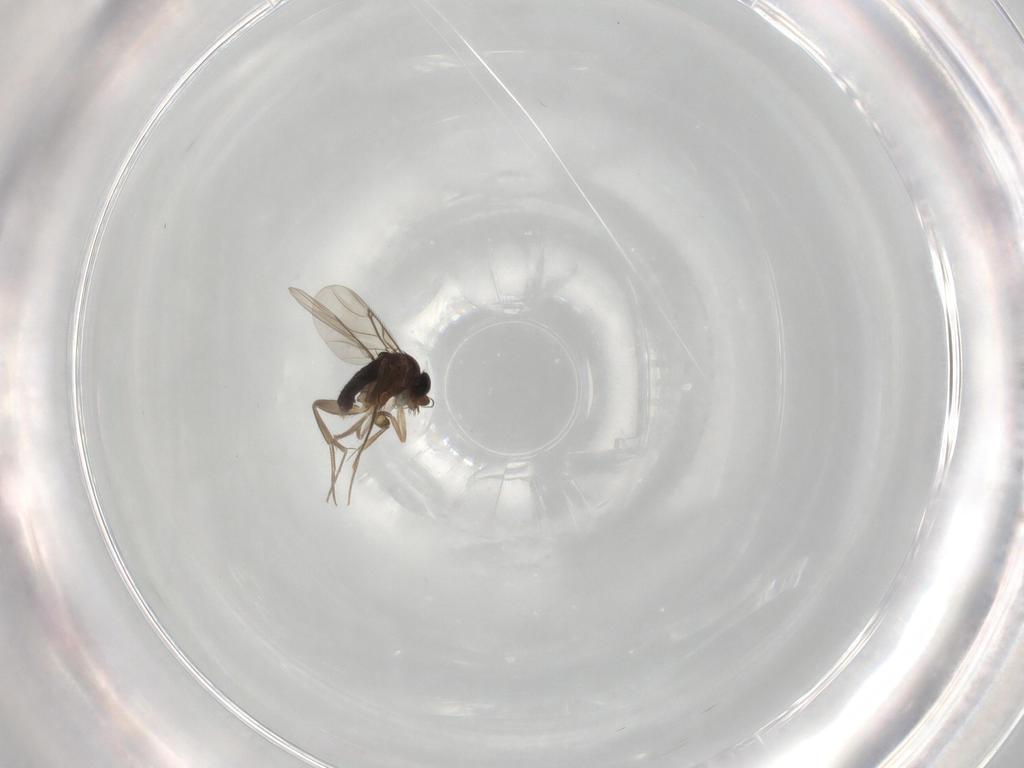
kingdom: Animalia
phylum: Arthropoda
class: Insecta
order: Diptera
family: Phoridae
